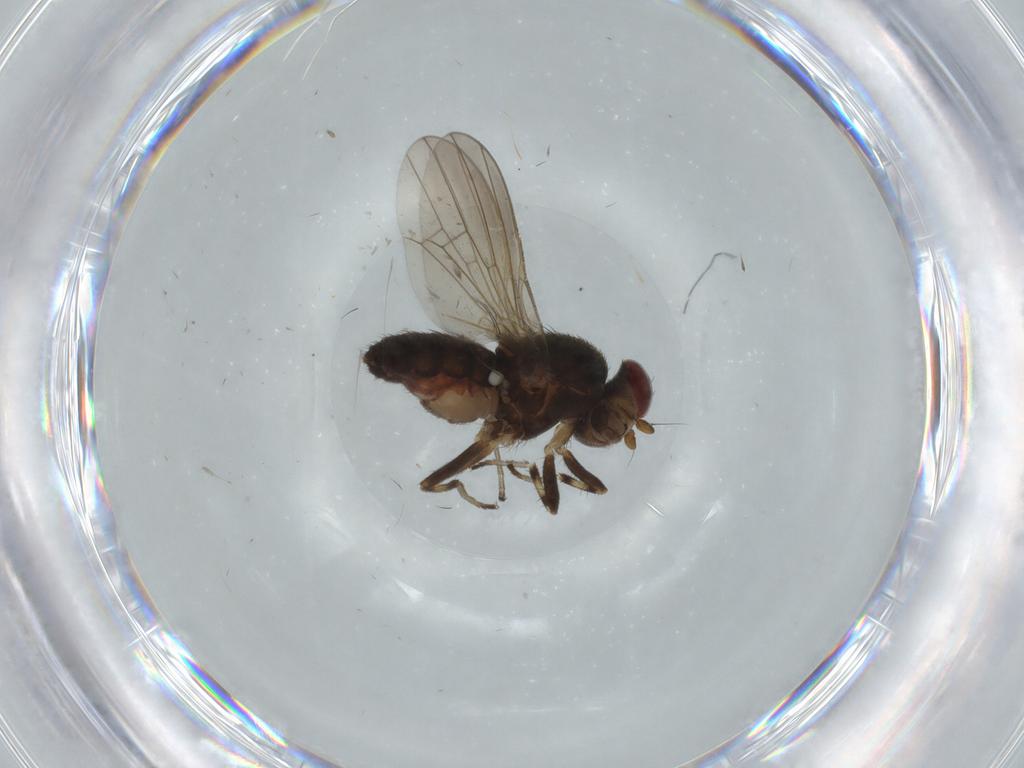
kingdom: Animalia
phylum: Arthropoda
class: Insecta
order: Diptera
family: Heleomyzidae
